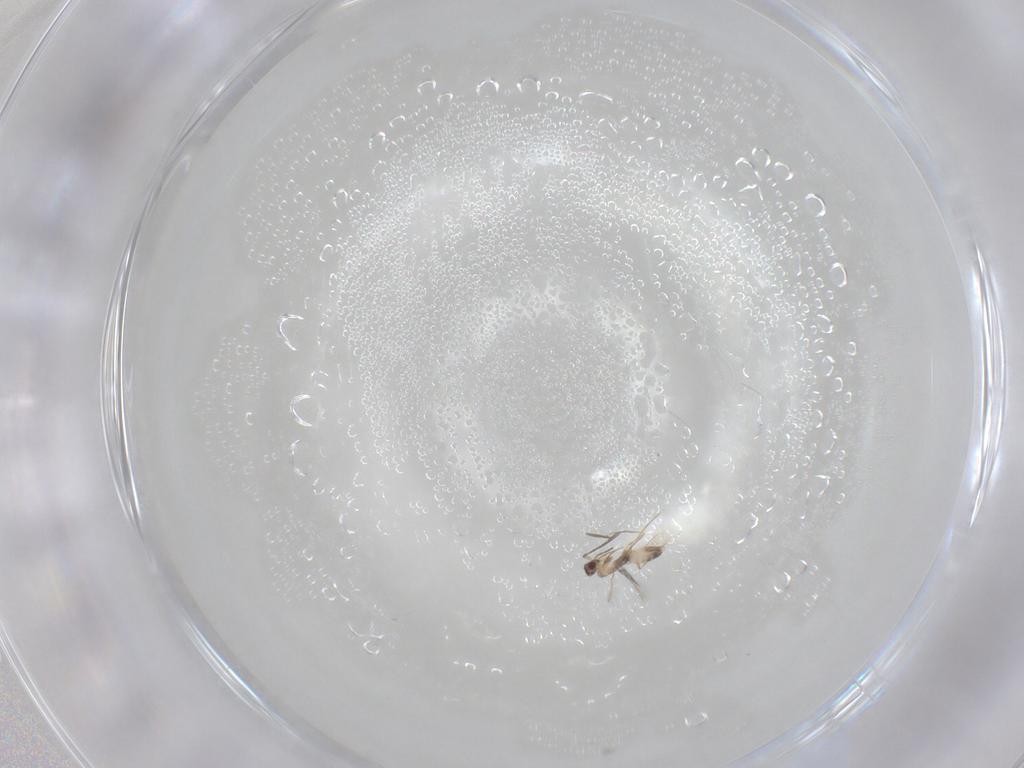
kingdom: Animalia
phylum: Arthropoda
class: Insecta
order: Hymenoptera
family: Mymaridae
